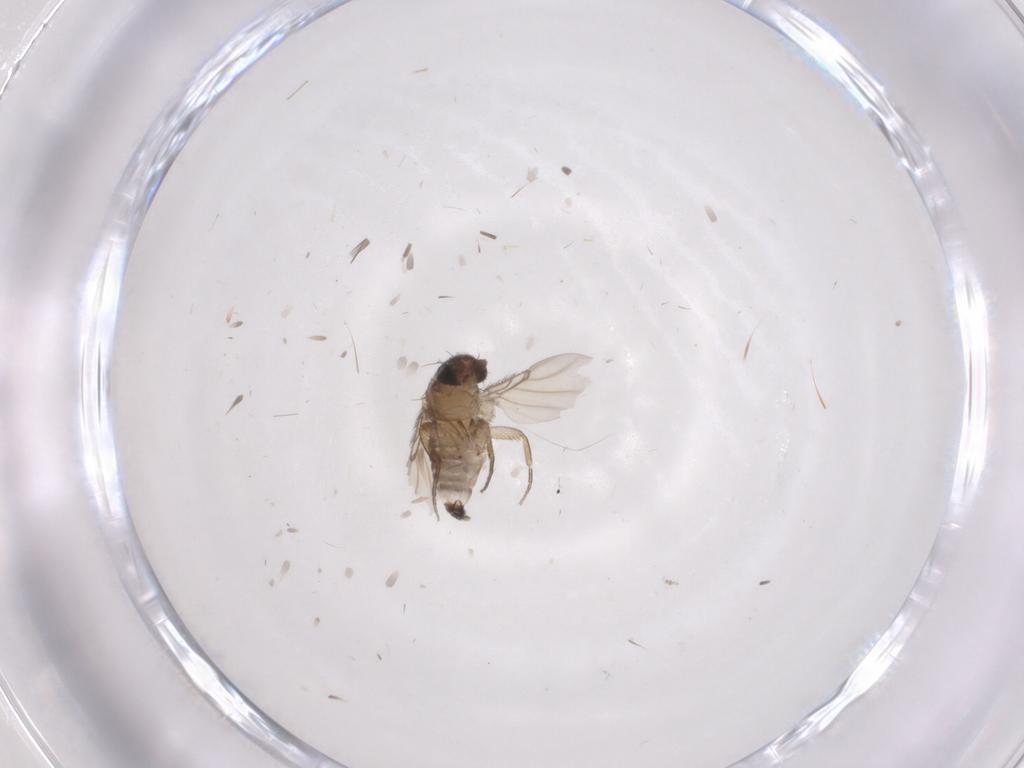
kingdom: Animalia
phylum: Arthropoda
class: Insecta
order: Diptera
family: Phoridae
